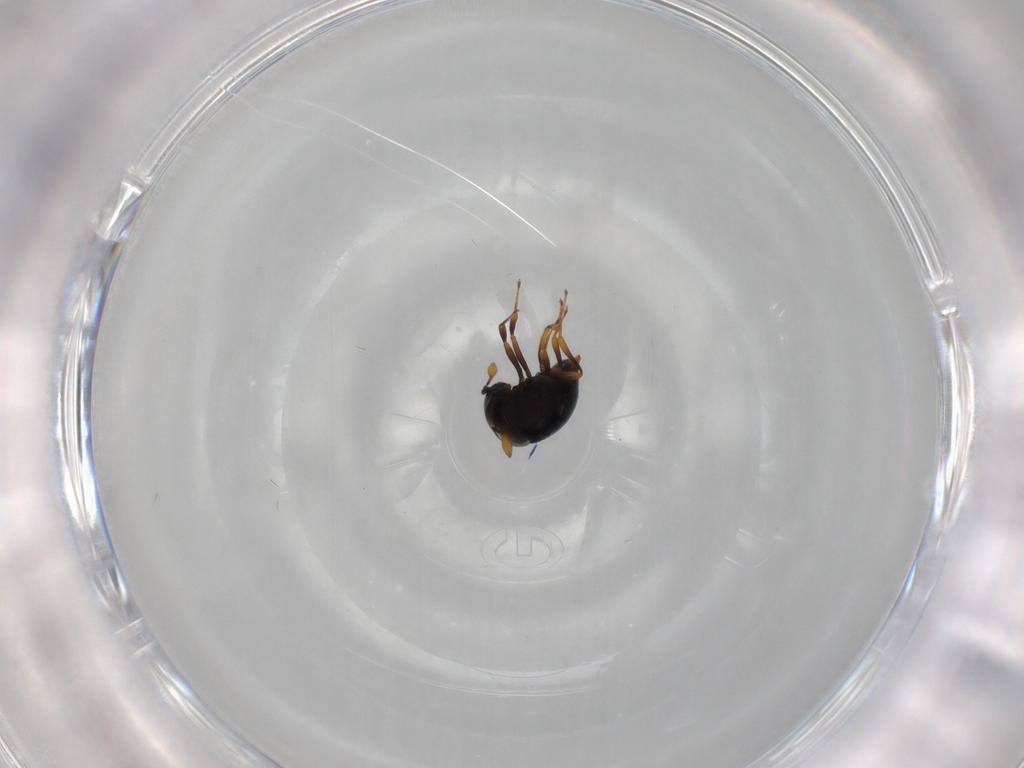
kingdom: Animalia
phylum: Arthropoda
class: Insecta
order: Hymenoptera
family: Scelionidae
